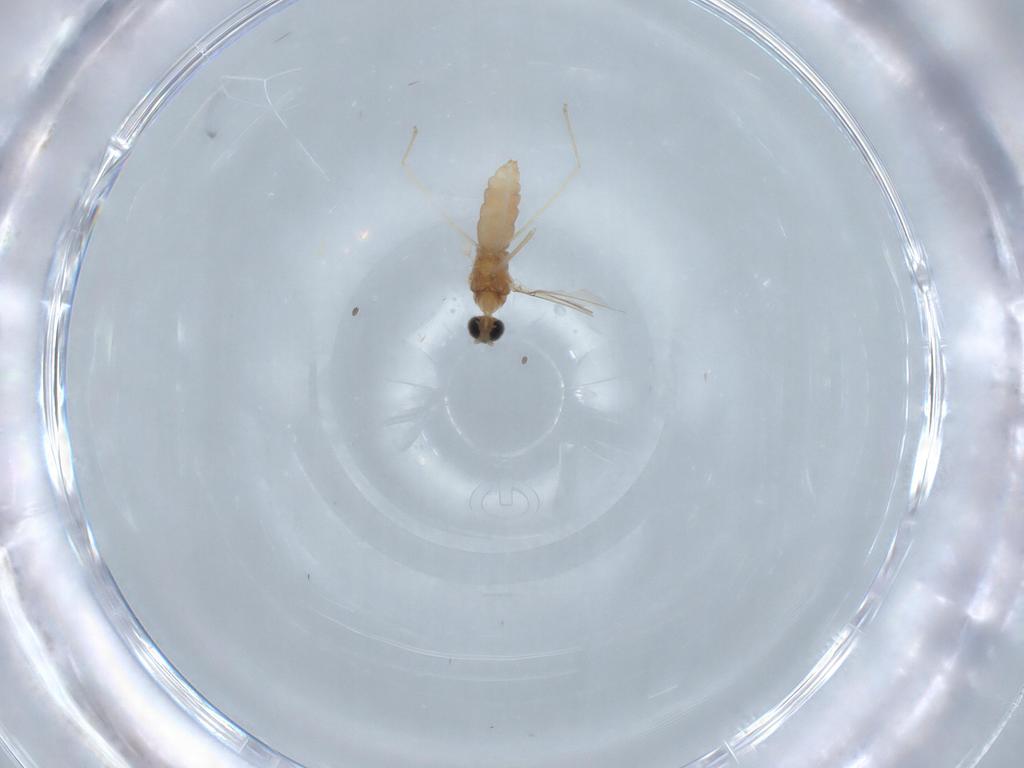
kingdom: Animalia
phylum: Arthropoda
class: Insecta
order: Diptera
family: Cecidomyiidae
